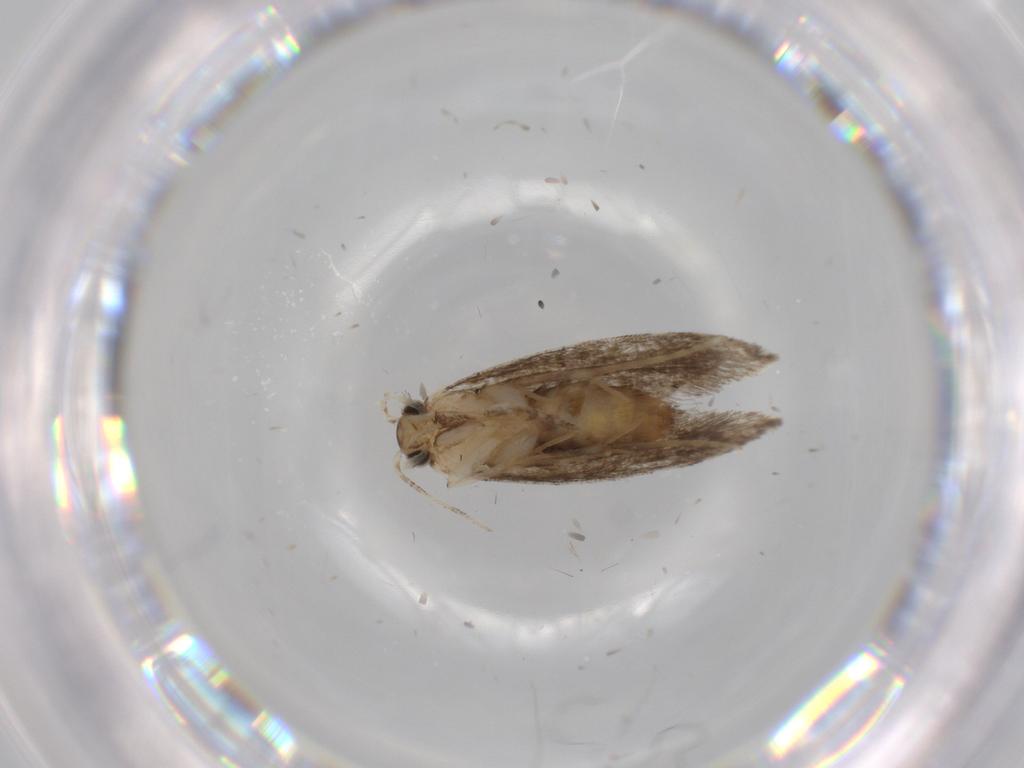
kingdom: Animalia
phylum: Arthropoda
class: Insecta
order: Lepidoptera
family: Tineidae
